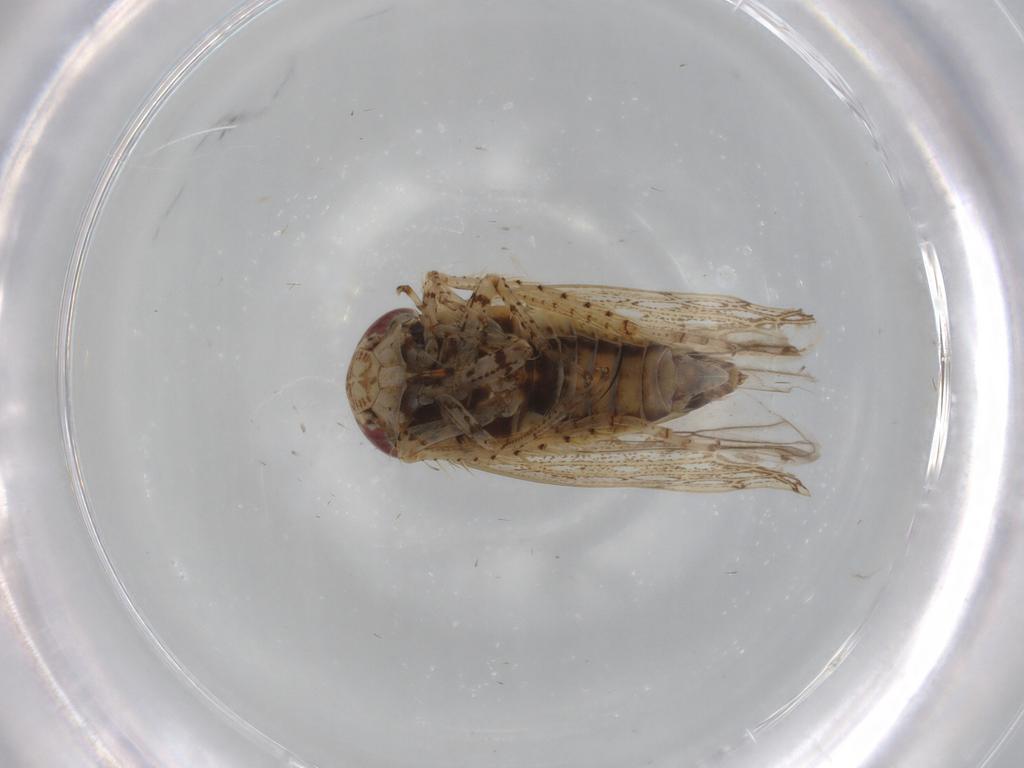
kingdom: Animalia
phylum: Arthropoda
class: Insecta
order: Hemiptera
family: Cicadellidae
